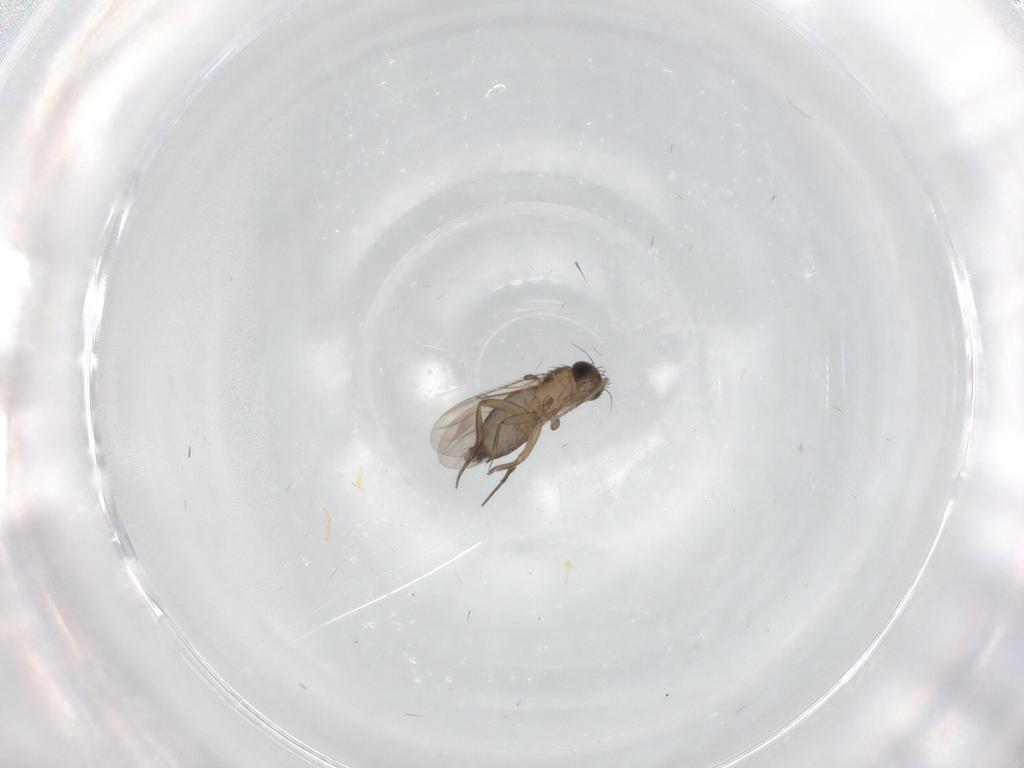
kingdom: Animalia
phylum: Arthropoda
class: Insecta
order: Diptera
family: Phoridae
